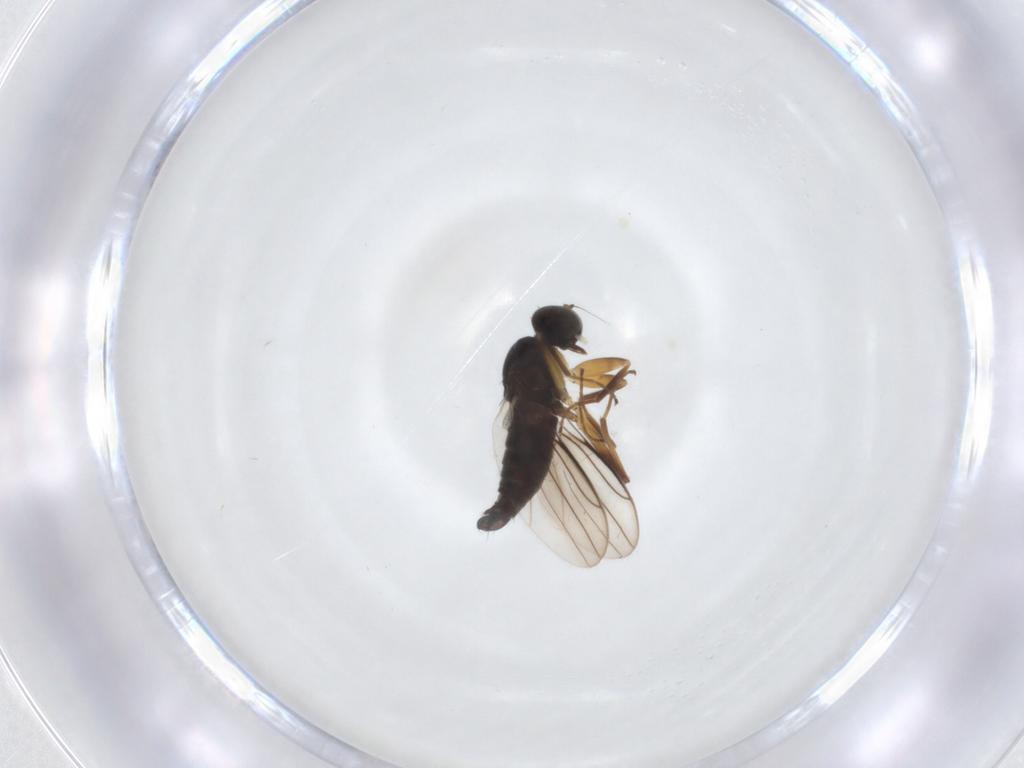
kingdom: Animalia
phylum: Arthropoda
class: Insecta
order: Diptera
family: Hybotidae
